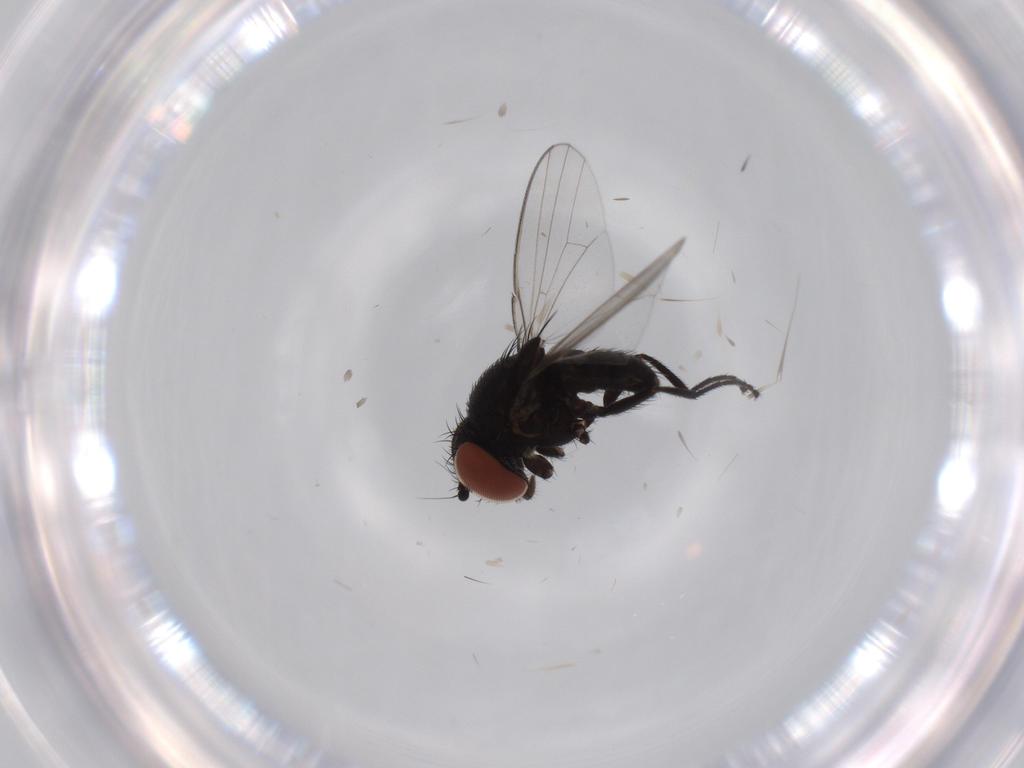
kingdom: Animalia
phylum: Arthropoda
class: Insecta
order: Diptera
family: Milichiidae
